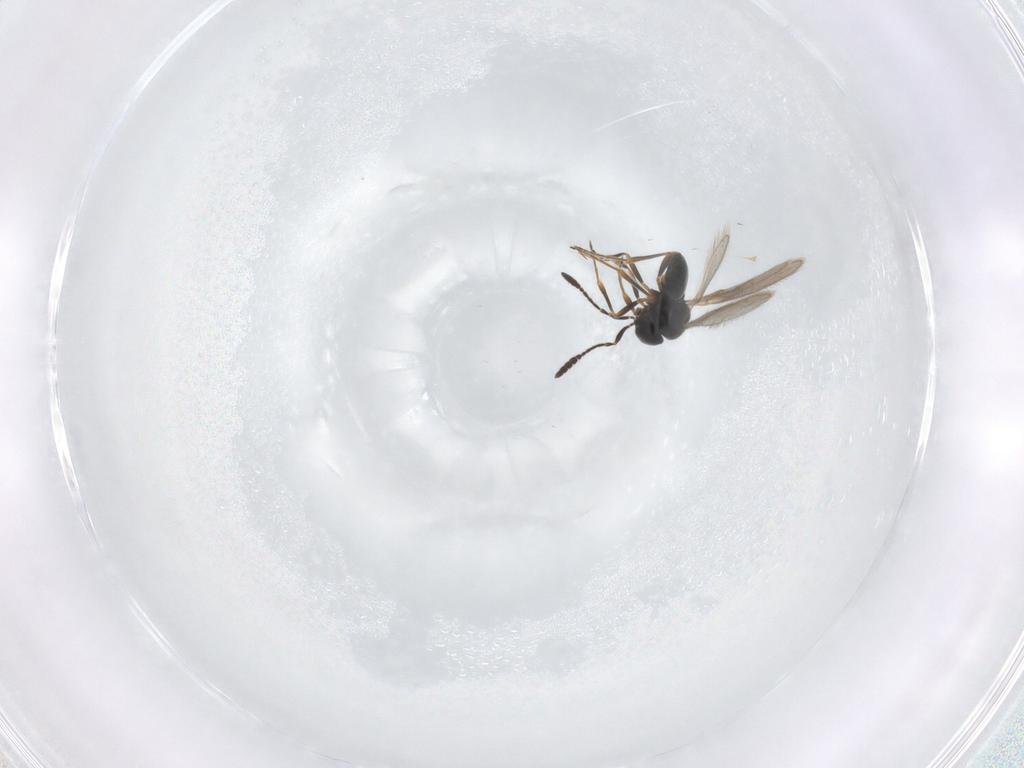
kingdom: Animalia
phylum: Arthropoda
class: Insecta
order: Hymenoptera
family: Scelionidae
